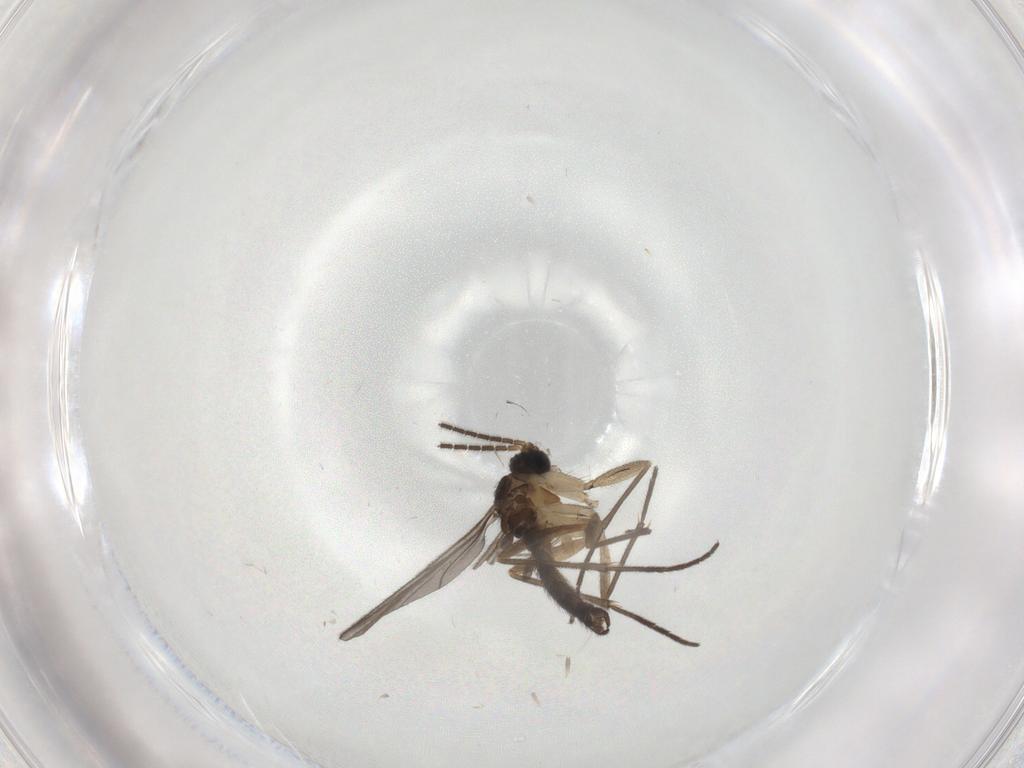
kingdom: Animalia
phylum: Arthropoda
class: Insecta
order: Diptera
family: Sciaridae
